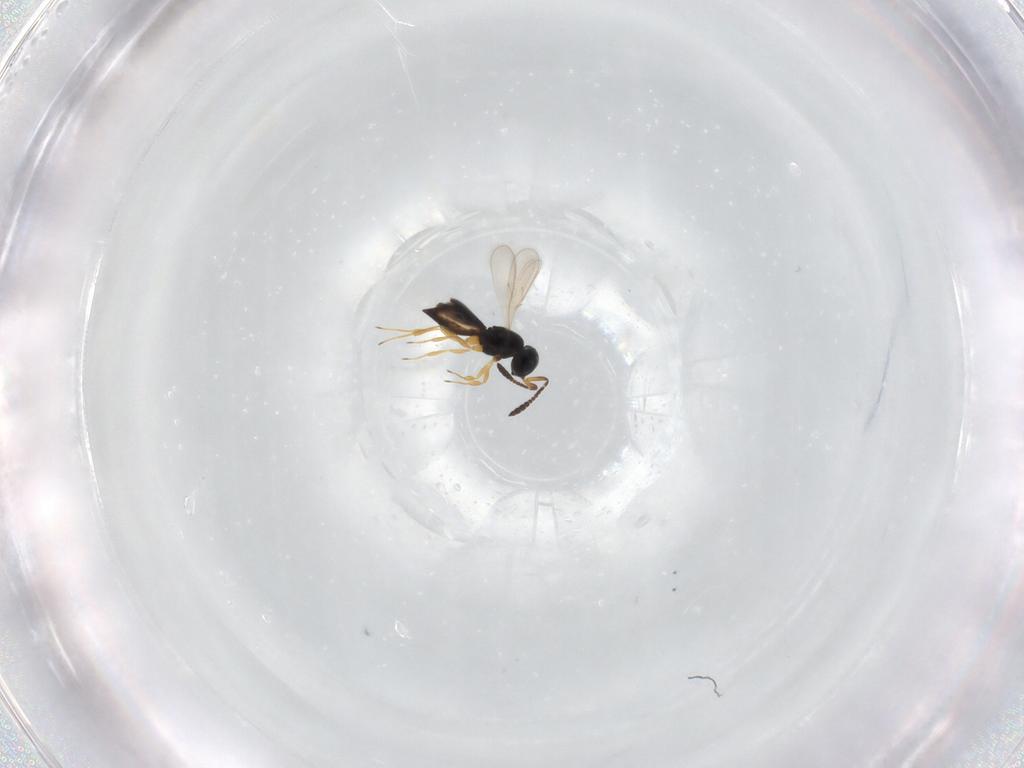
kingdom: Animalia
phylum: Arthropoda
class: Insecta
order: Hymenoptera
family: Scelionidae
